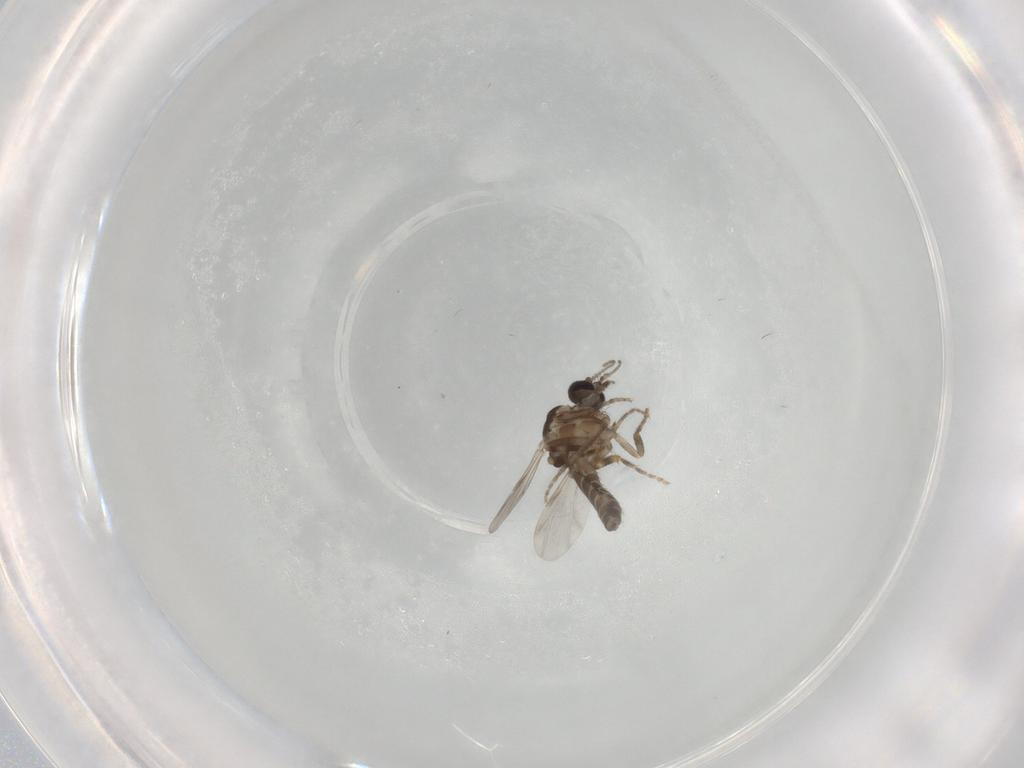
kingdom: Animalia
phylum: Arthropoda
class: Insecta
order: Diptera
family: Ceratopogonidae
